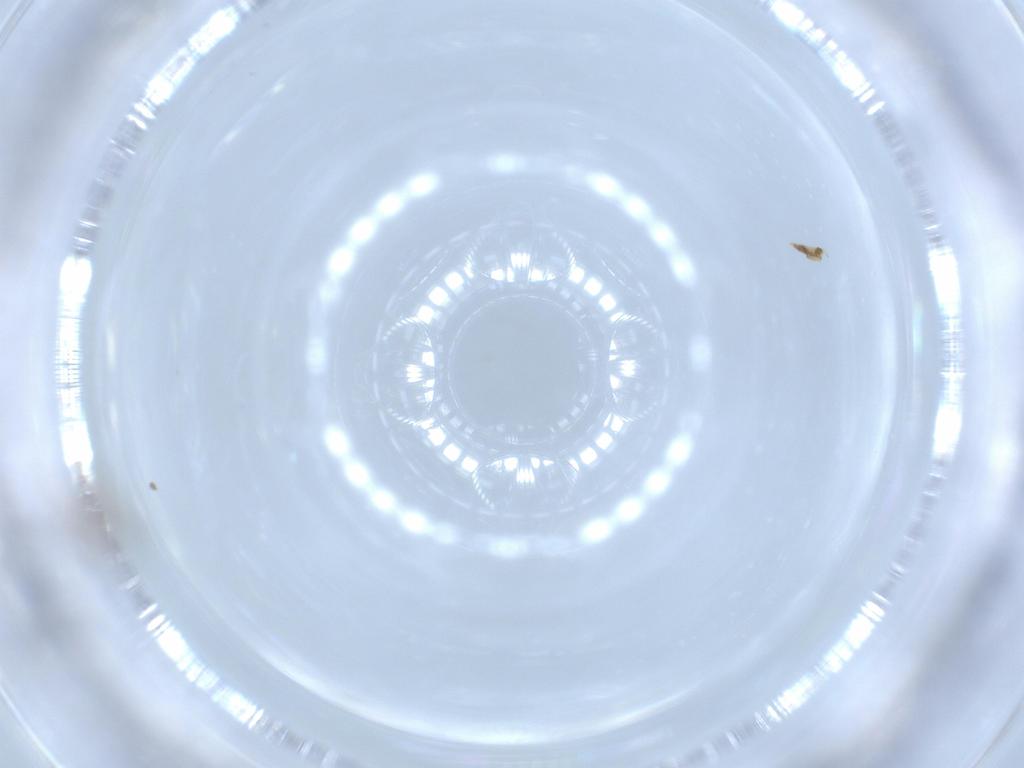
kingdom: Animalia
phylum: Arthropoda
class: Insecta
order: Diptera
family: Cecidomyiidae
